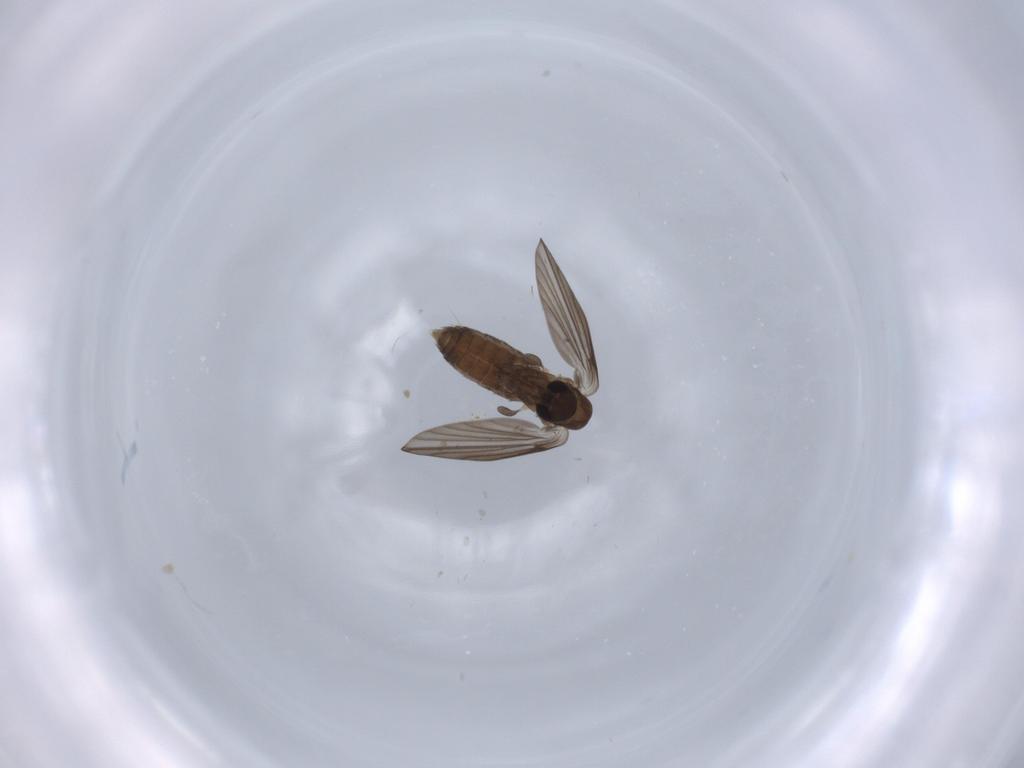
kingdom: Animalia
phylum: Arthropoda
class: Insecta
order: Diptera
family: Psychodidae
